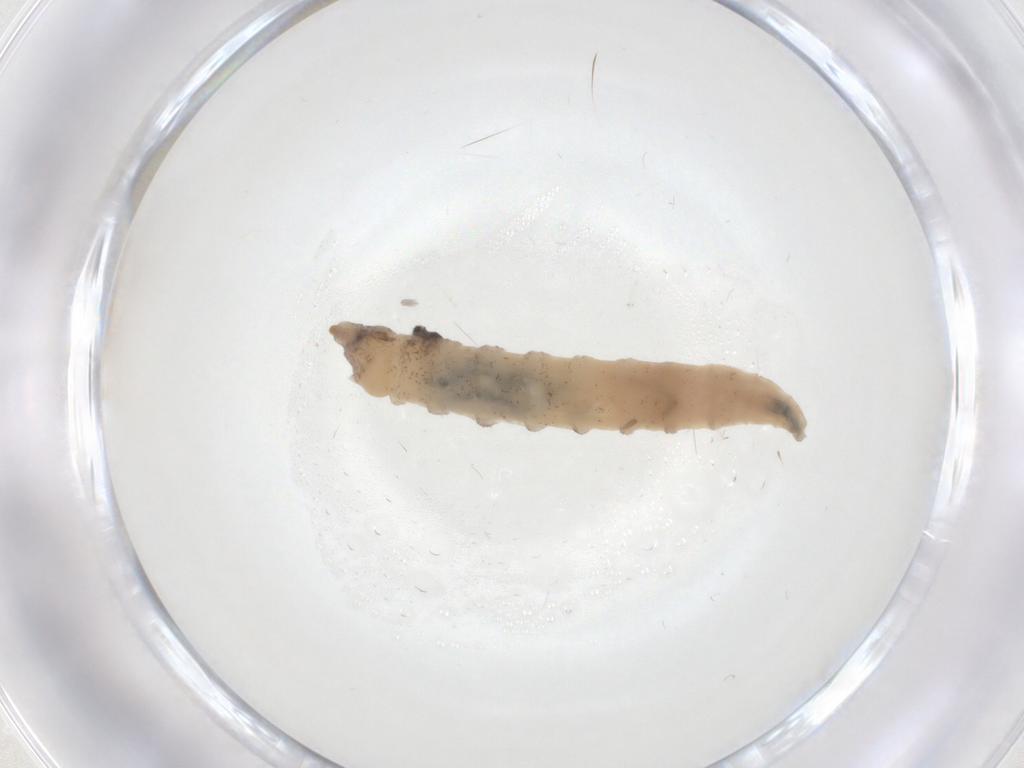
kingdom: Animalia
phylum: Arthropoda
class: Insecta
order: Diptera
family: Drosophilidae
